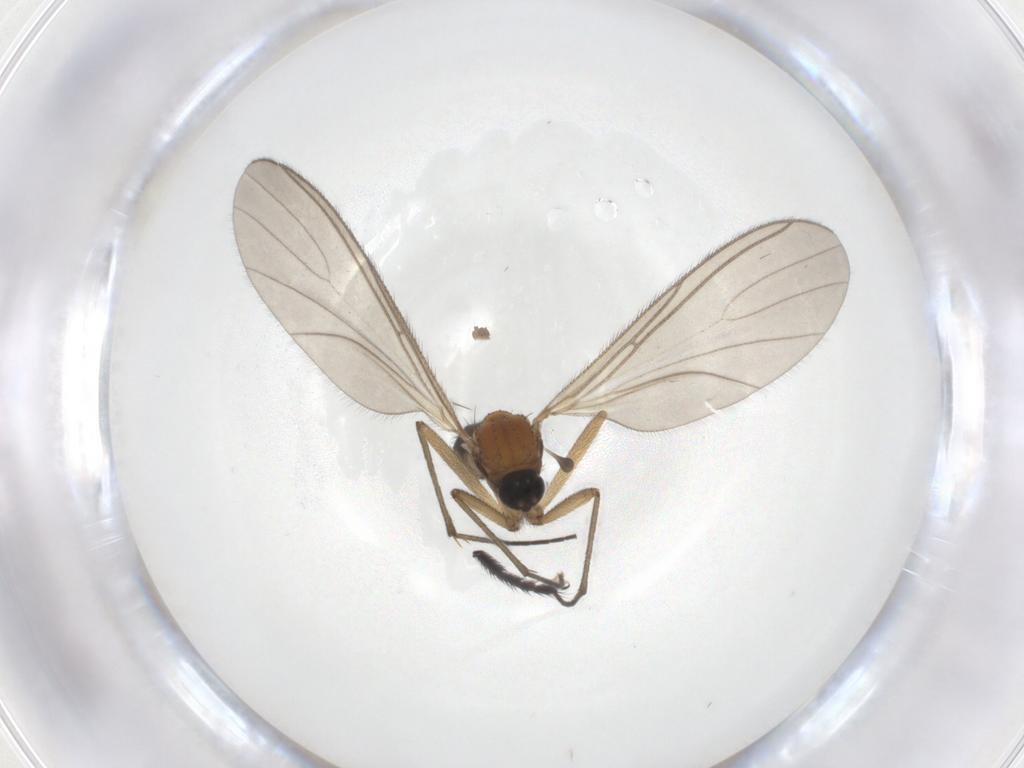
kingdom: Animalia
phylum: Arthropoda
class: Insecta
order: Diptera
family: Sciaridae
